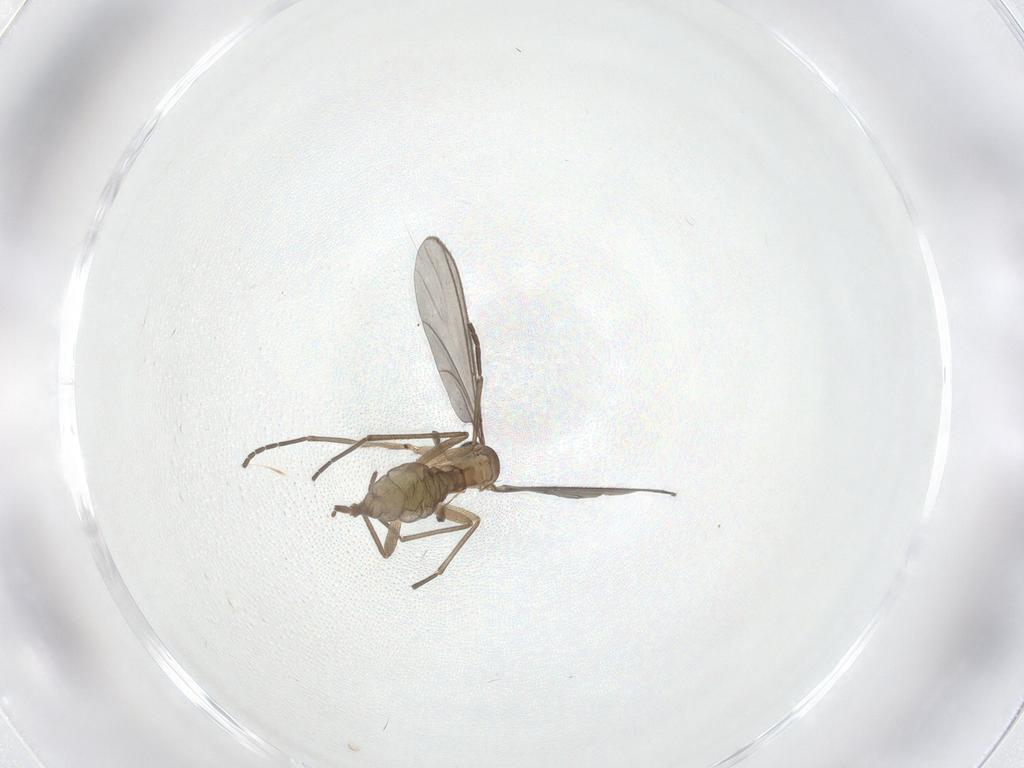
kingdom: Animalia
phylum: Arthropoda
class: Insecta
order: Diptera
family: Sciaridae
